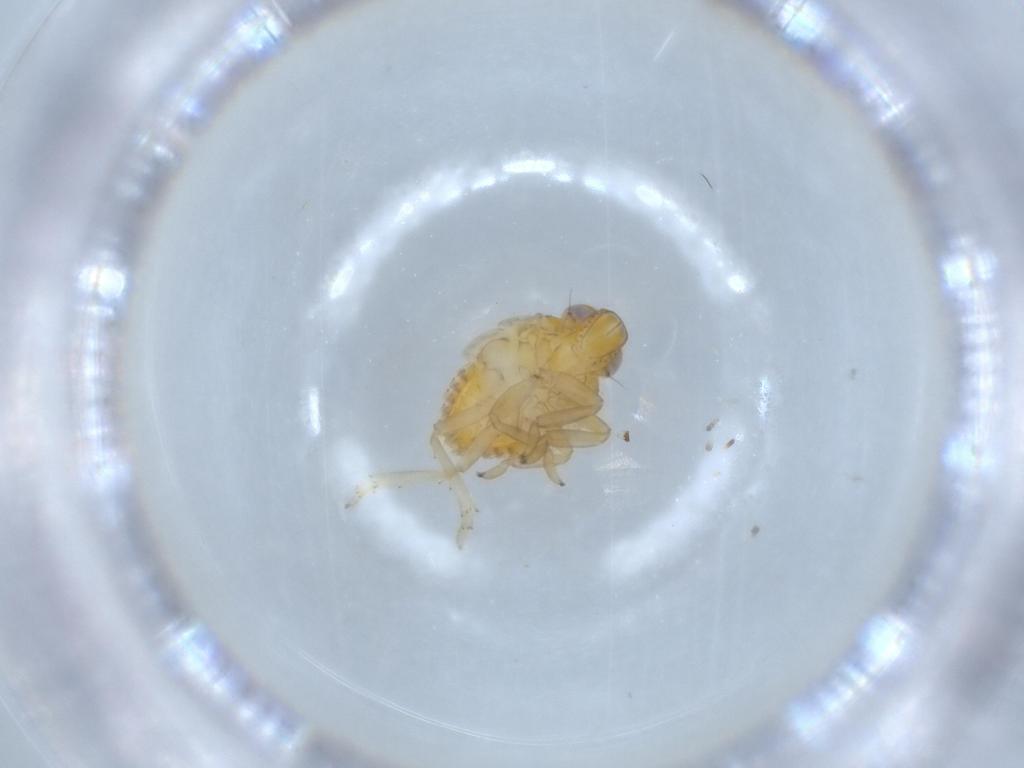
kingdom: Animalia
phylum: Arthropoda
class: Insecta
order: Hemiptera
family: Issidae
